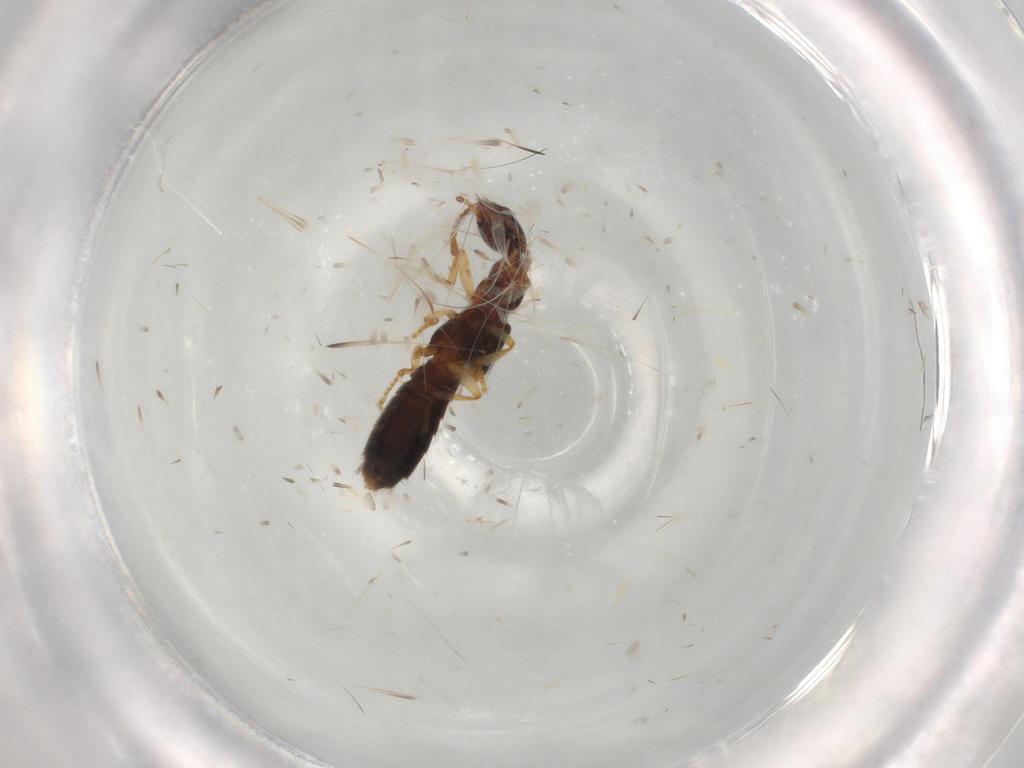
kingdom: Animalia
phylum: Arthropoda
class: Insecta
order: Coleoptera
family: Staphylinidae
